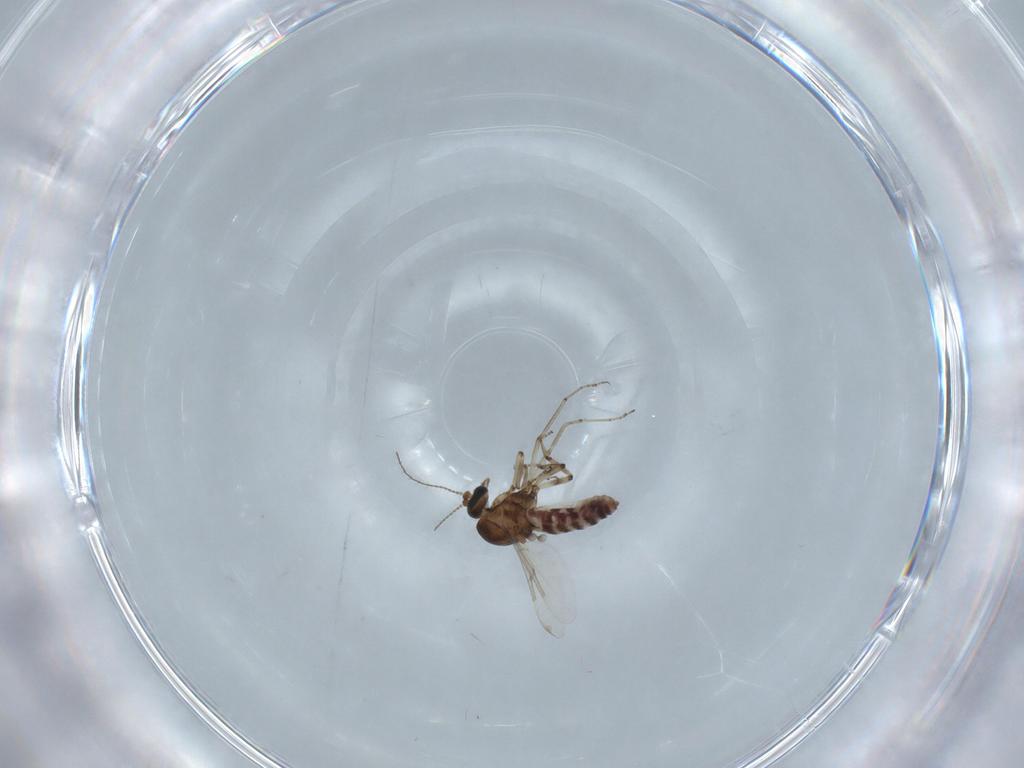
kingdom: Animalia
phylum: Arthropoda
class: Insecta
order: Diptera
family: Ceratopogonidae
